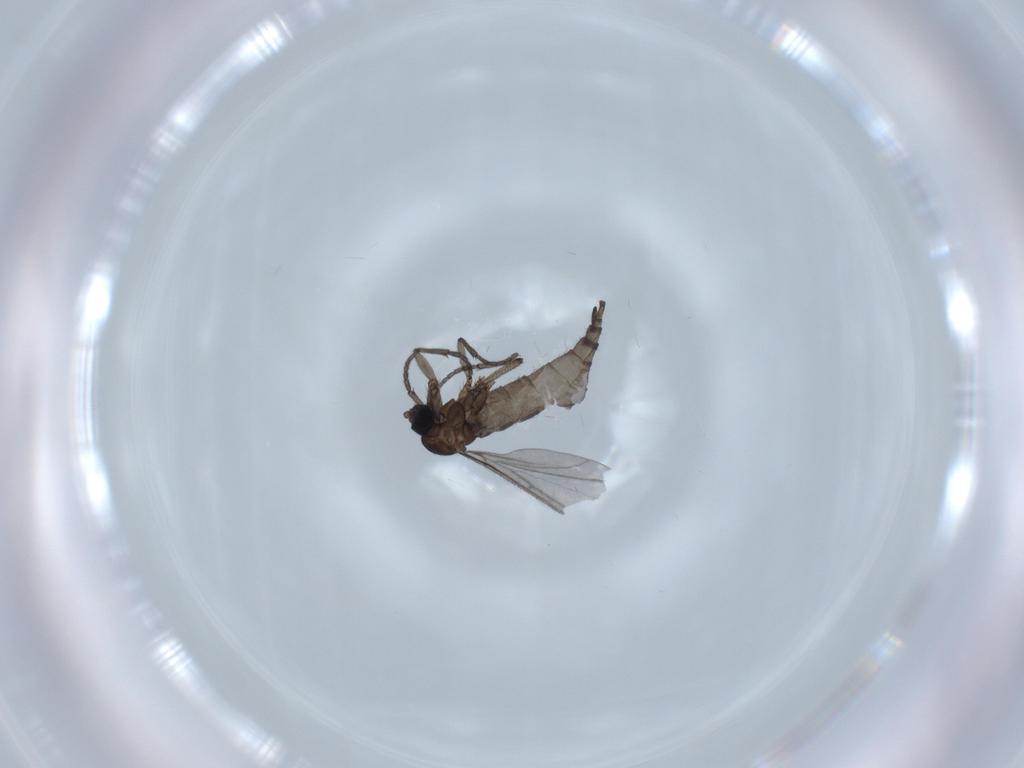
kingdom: Animalia
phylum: Arthropoda
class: Insecta
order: Diptera
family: Sciaridae
